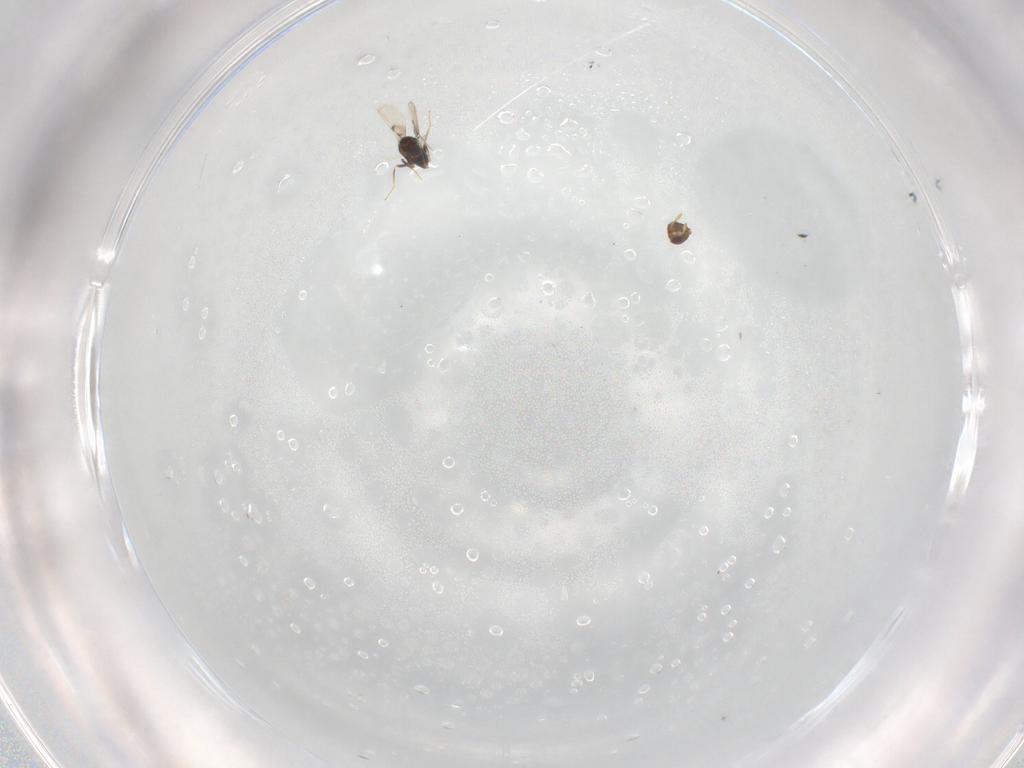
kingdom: Animalia
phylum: Arthropoda
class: Insecta
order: Hymenoptera
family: Trichogrammatidae
